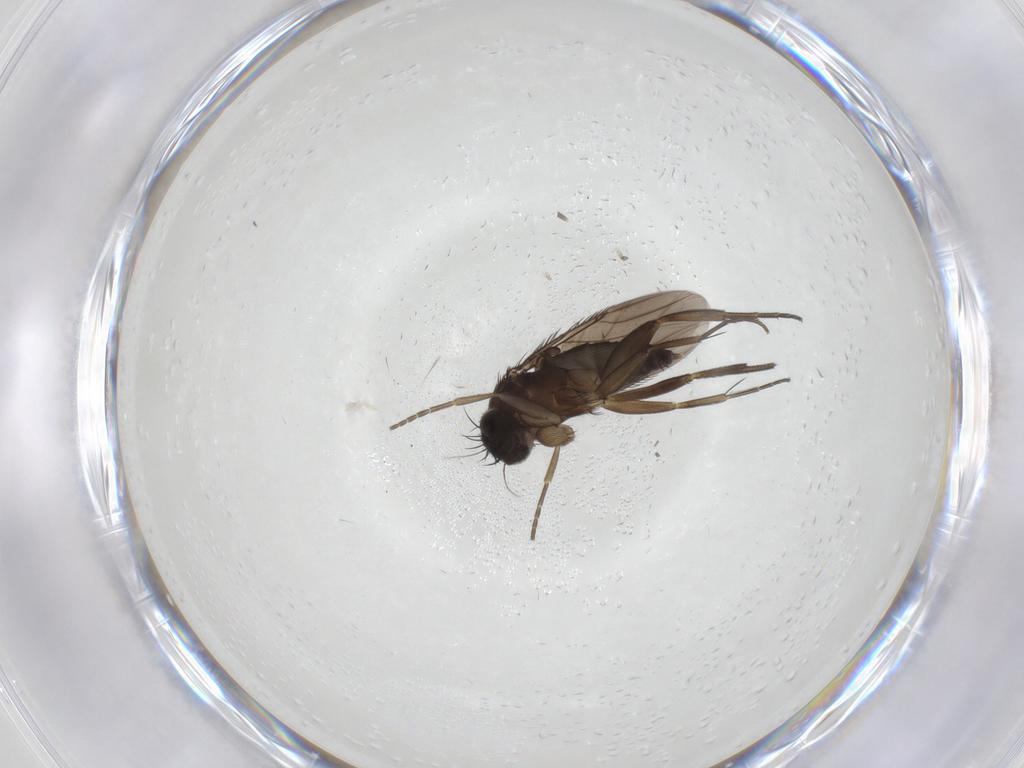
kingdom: Animalia
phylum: Arthropoda
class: Insecta
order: Diptera
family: Phoridae
